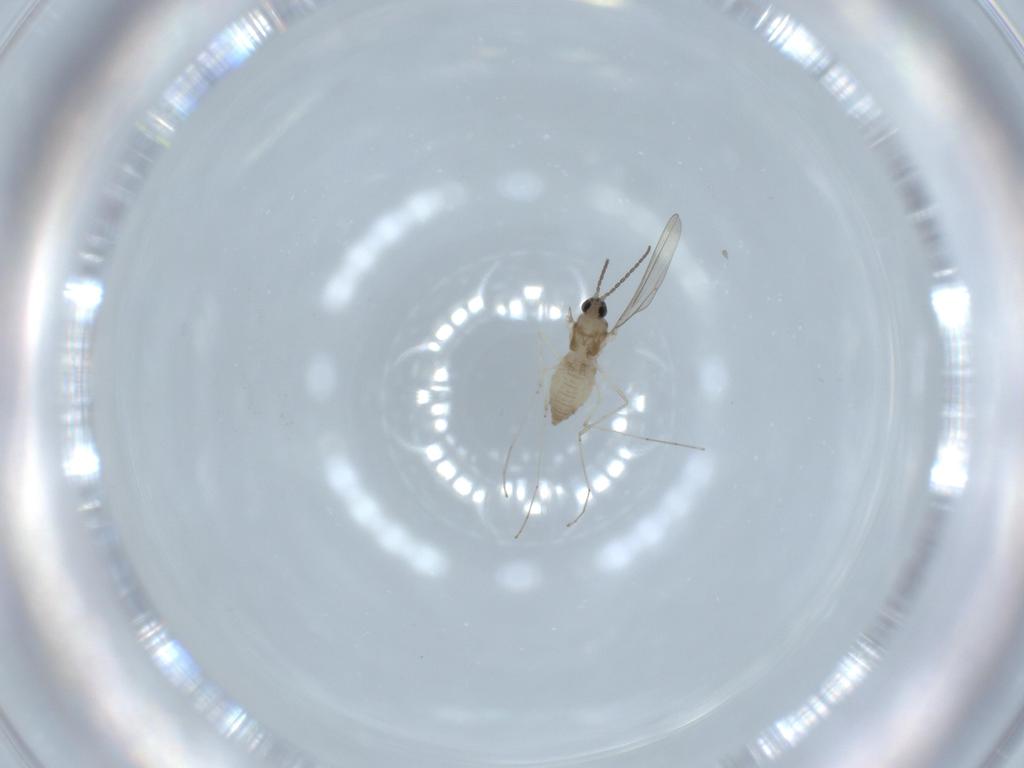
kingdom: Animalia
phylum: Arthropoda
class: Insecta
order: Diptera
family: Cecidomyiidae
